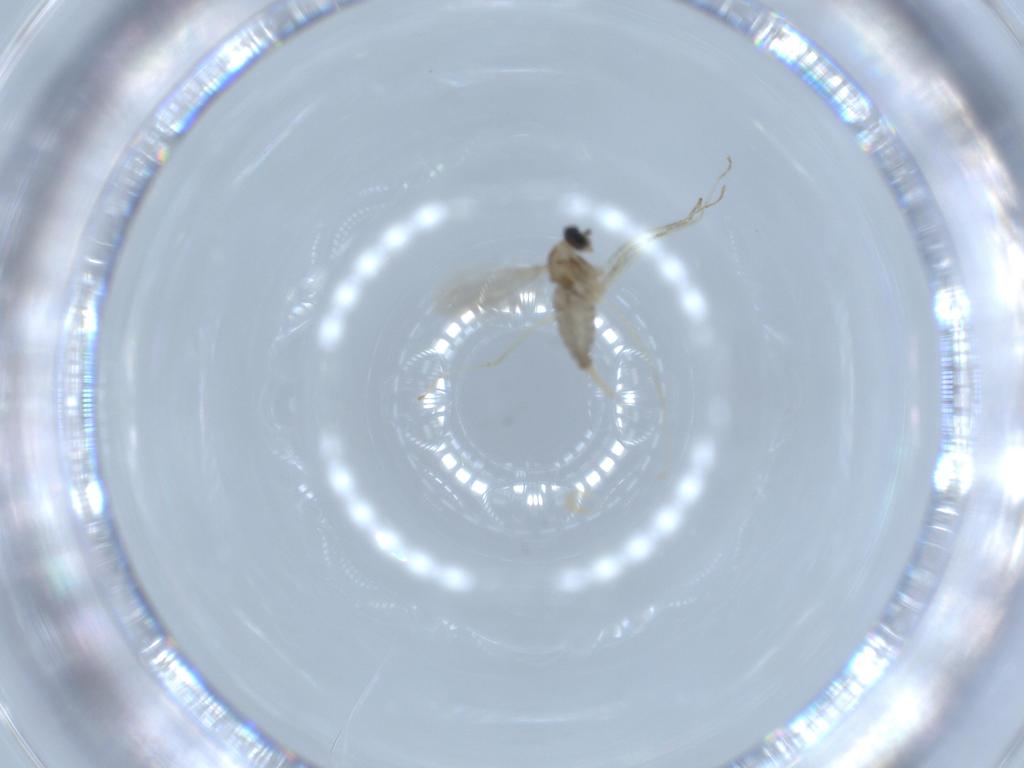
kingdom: Animalia
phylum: Arthropoda
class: Insecta
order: Diptera
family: Cecidomyiidae
